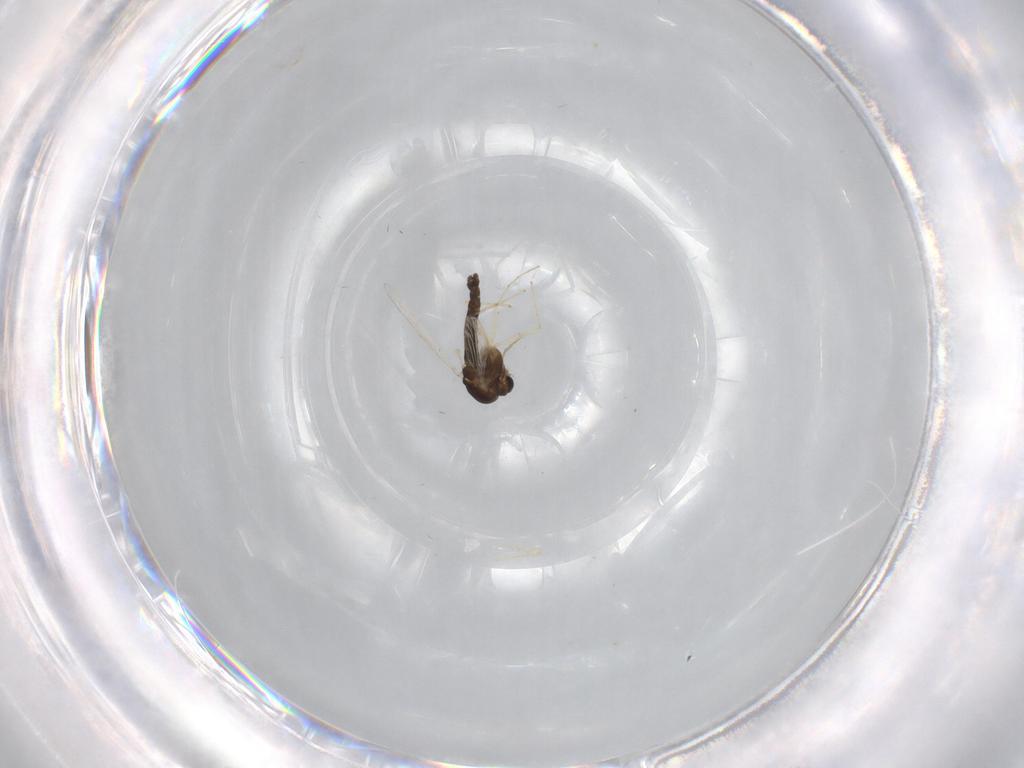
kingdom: Animalia
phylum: Arthropoda
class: Insecta
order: Diptera
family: Chironomidae
